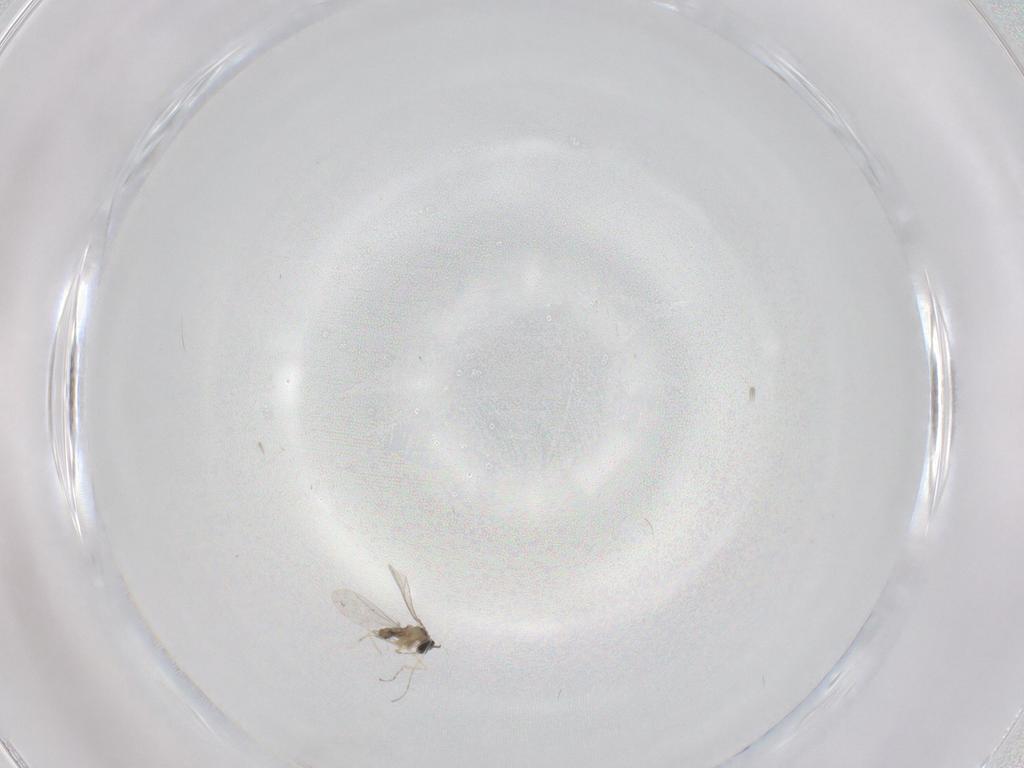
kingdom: Animalia
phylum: Arthropoda
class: Insecta
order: Diptera
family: Cecidomyiidae
